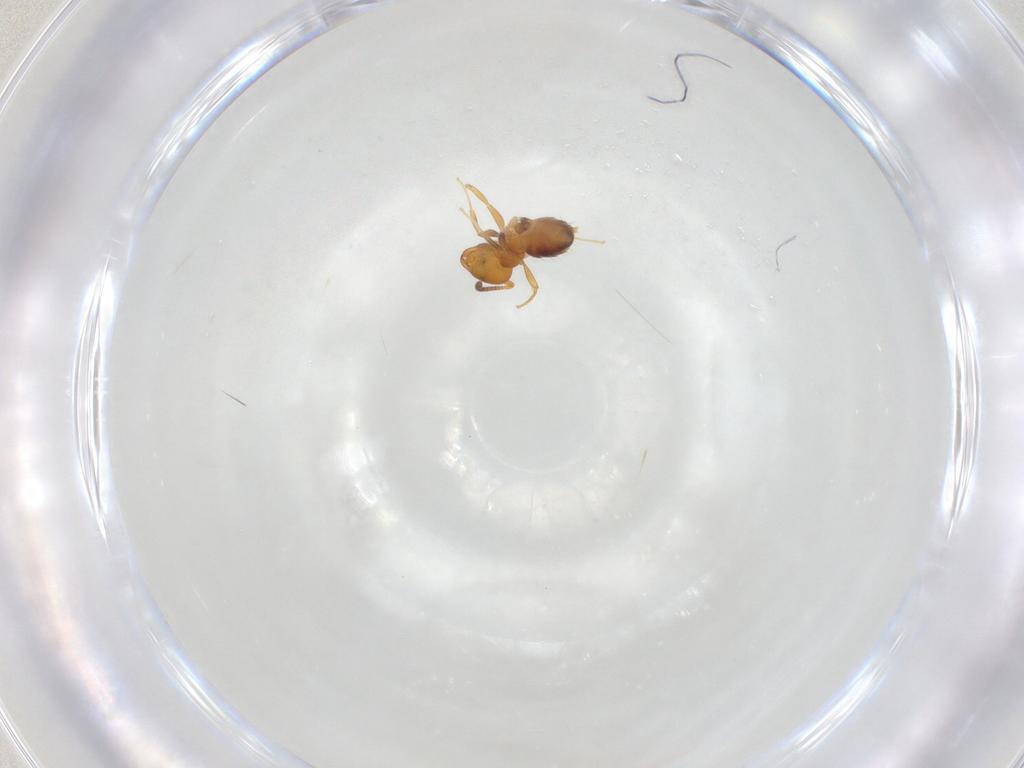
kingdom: Animalia
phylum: Arthropoda
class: Insecta
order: Hymenoptera
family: Formicidae
